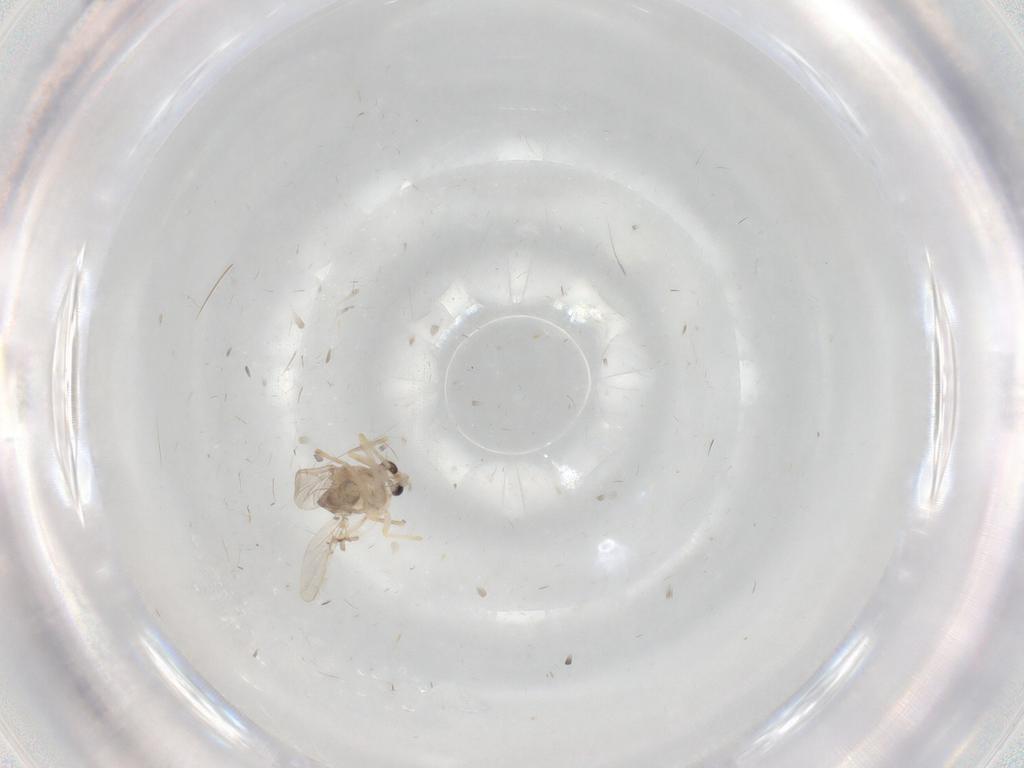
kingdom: Animalia
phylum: Arthropoda
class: Insecta
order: Diptera
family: Chironomidae
